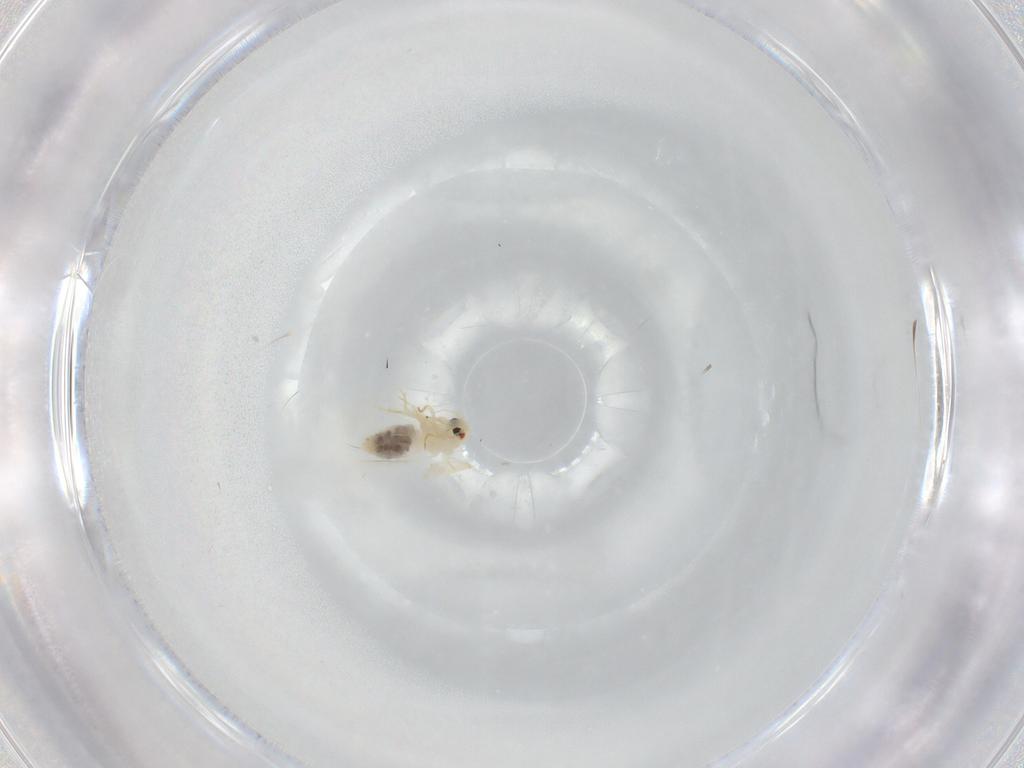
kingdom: Animalia
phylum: Arthropoda
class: Insecta
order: Hemiptera
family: Aleyrodidae
